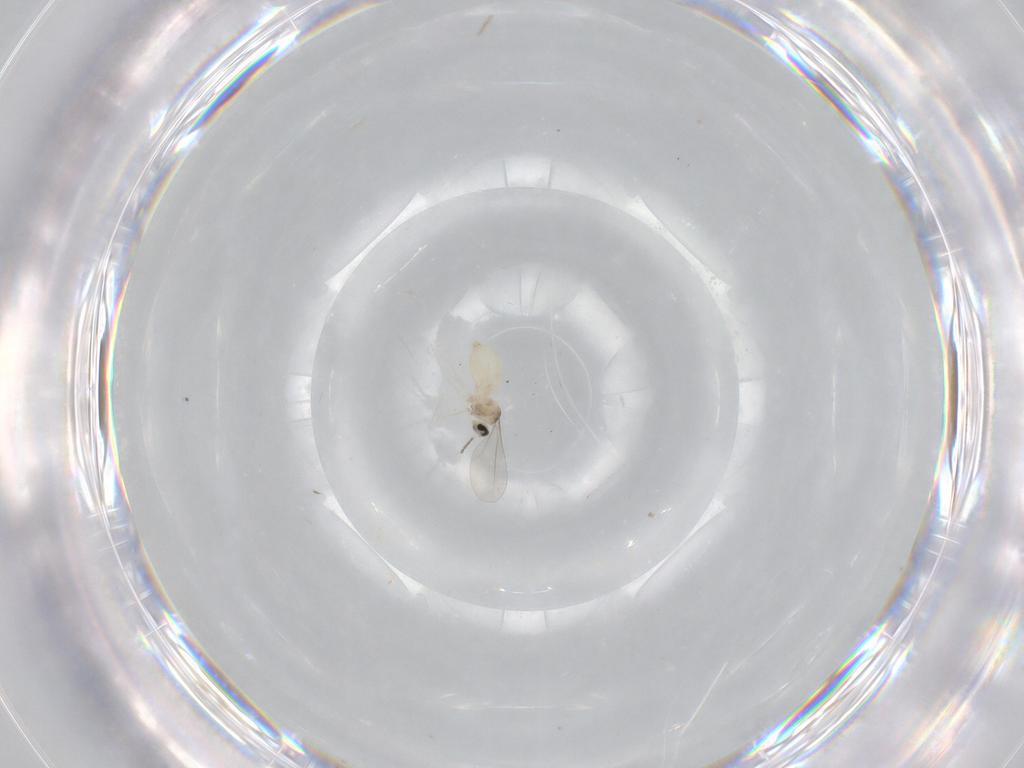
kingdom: Animalia
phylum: Arthropoda
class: Insecta
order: Diptera
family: Cecidomyiidae
